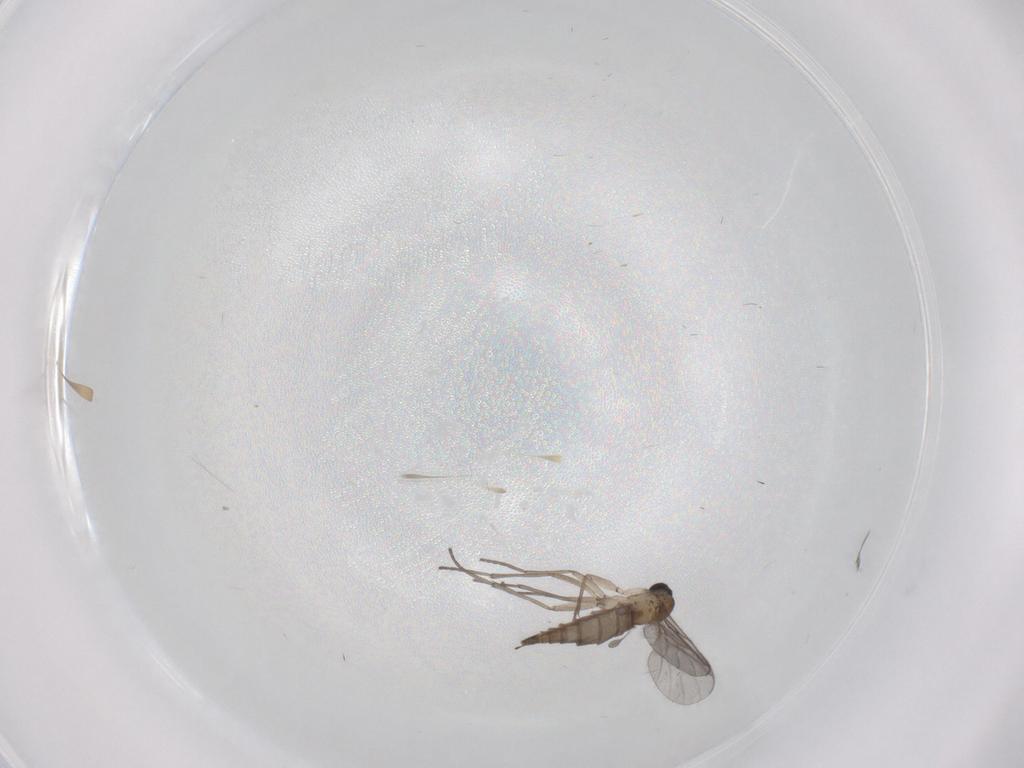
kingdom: Animalia
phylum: Arthropoda
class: Insecta
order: Diptera
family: Sciaridae
